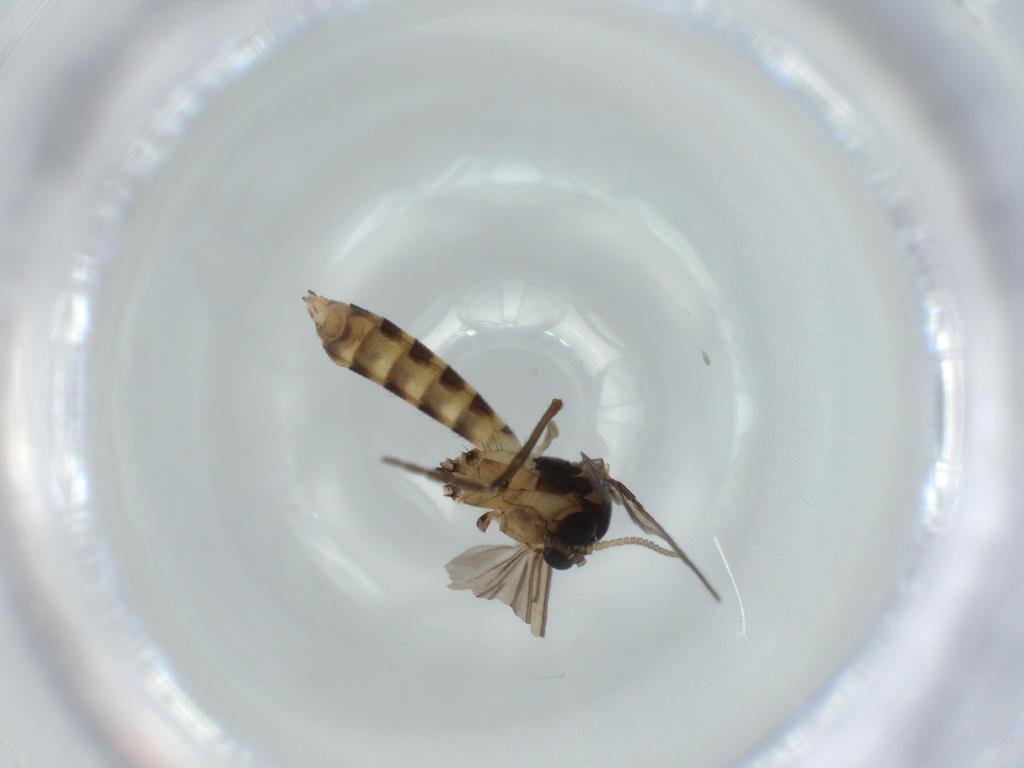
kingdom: Animalia
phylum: Arthropoda
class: Insecta
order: Diptera
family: Mycetophilidae
